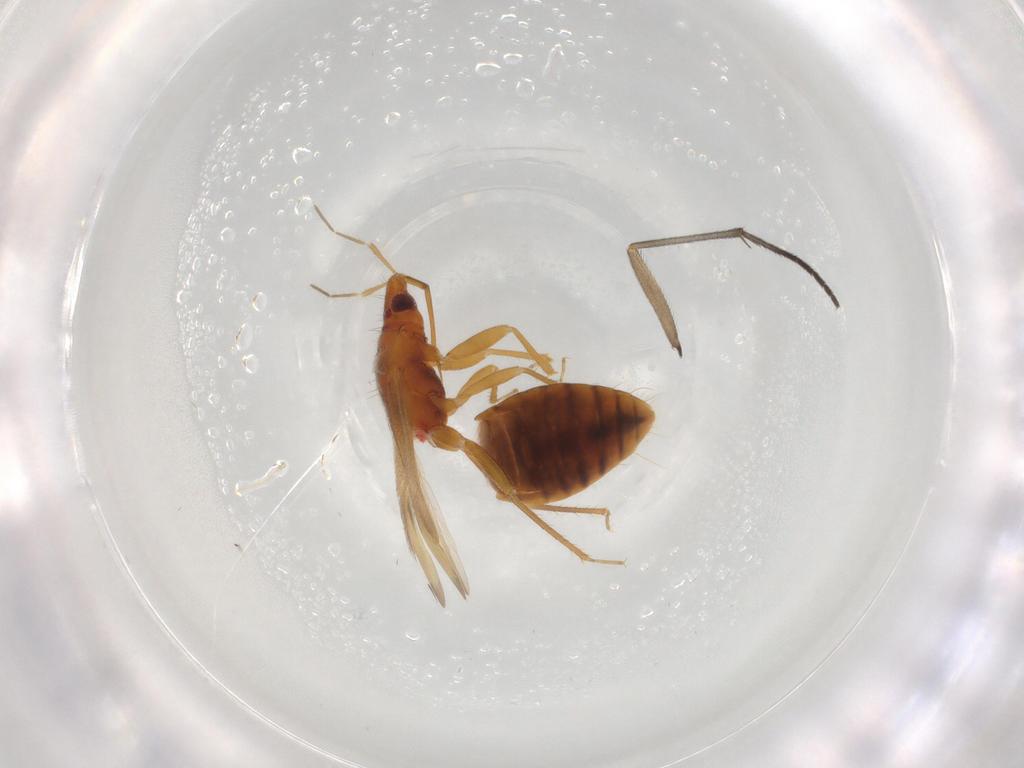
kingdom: Animalia
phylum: Arthropoda
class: Insecta
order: Hemiptera
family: Anthocoridae
